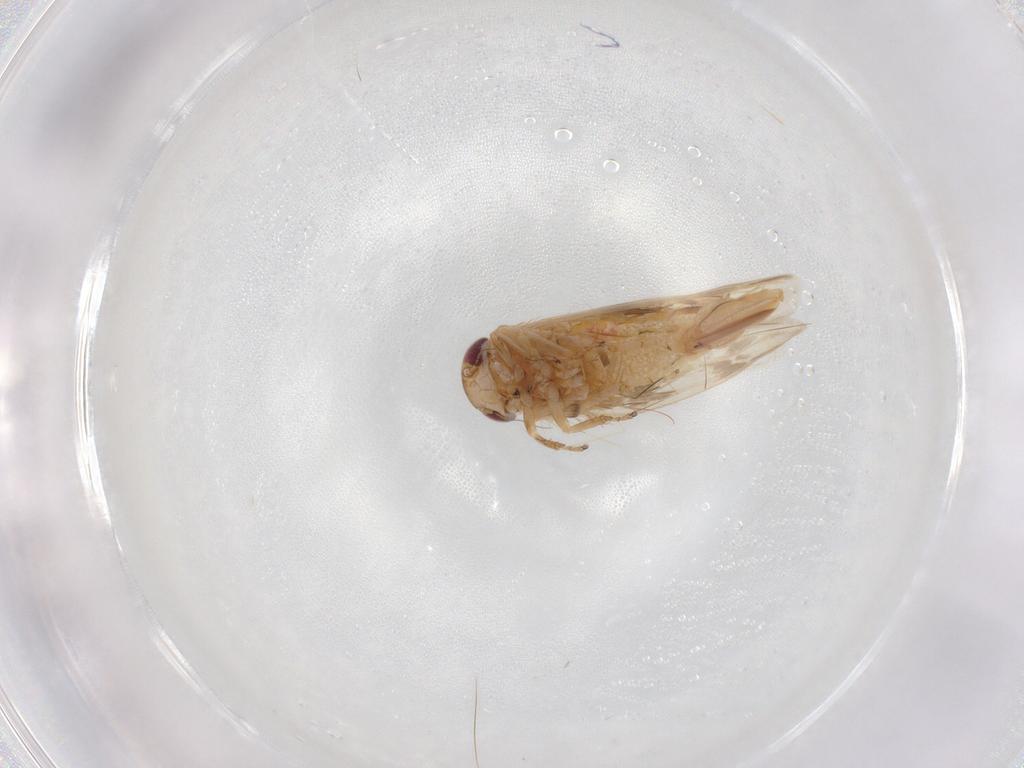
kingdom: Animalia
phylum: Arthropoda
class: Insecta
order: Hemiptera
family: Cicadellidae
